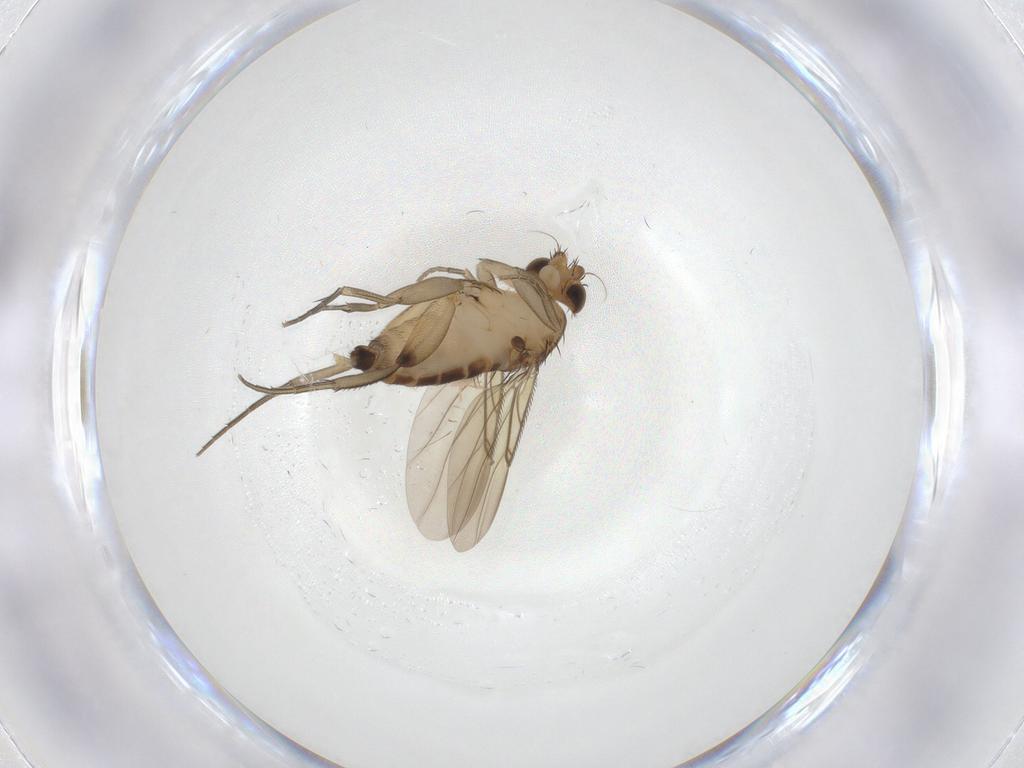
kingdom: Animalia
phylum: Arthropoda
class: Insecta
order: Diptera
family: Phoridae
